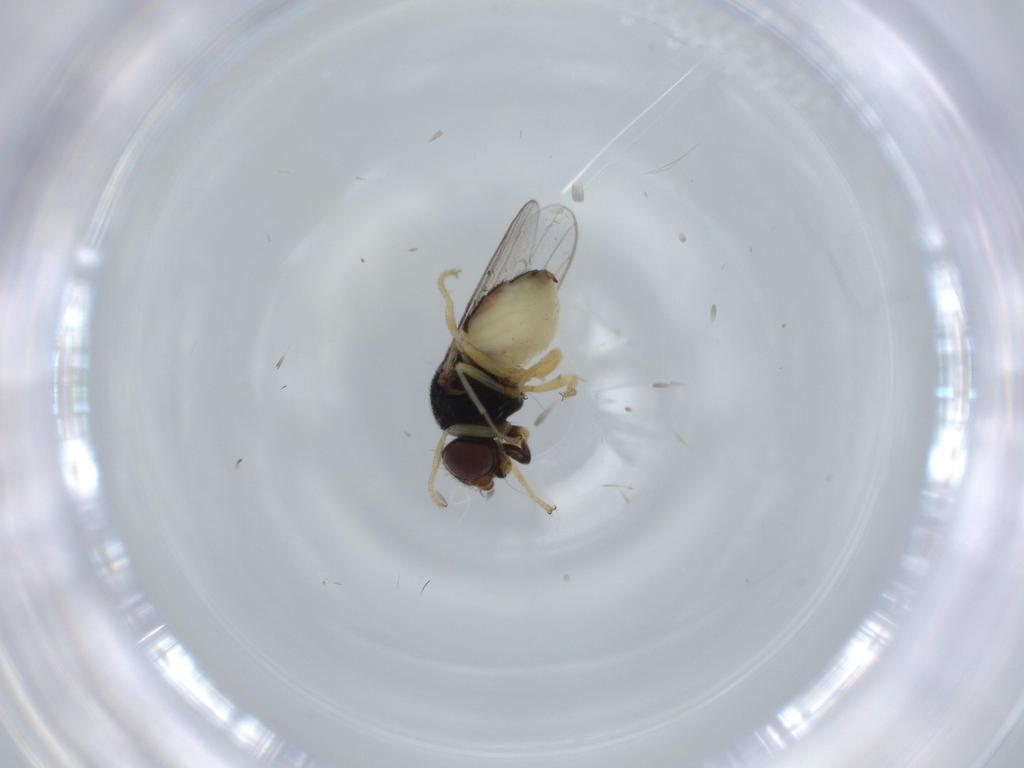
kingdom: Animalia
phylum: Arthropoda
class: Insecta
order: Diptera
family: Chloropidae
